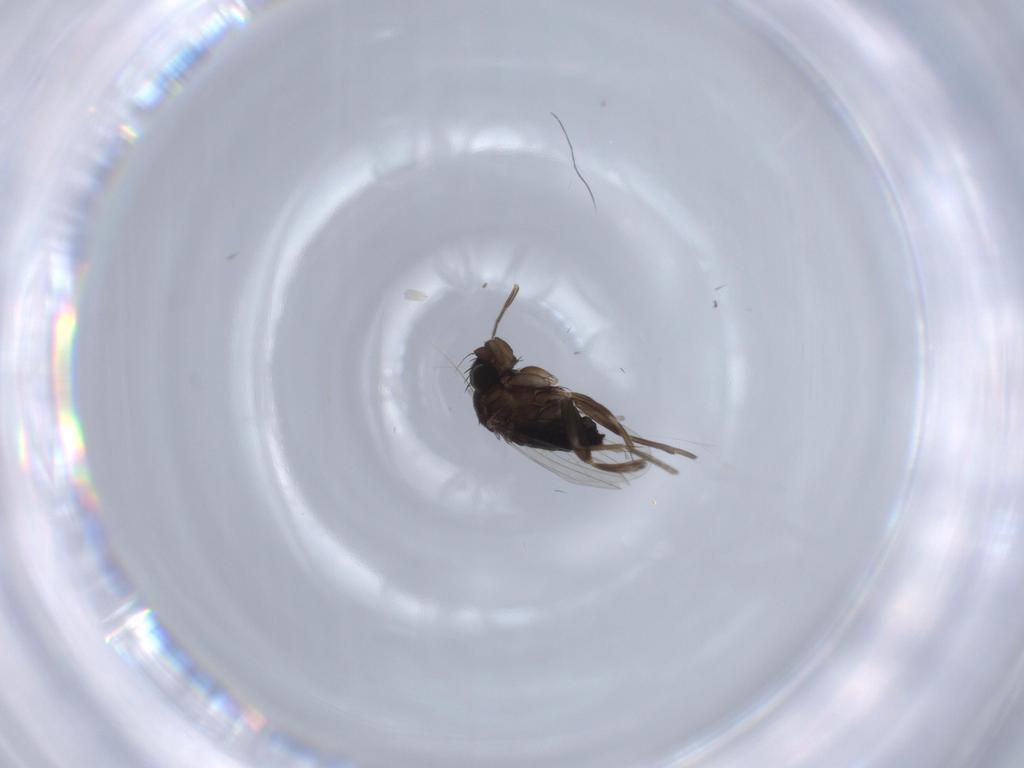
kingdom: Animalia
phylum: Arthropoda
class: Insecta
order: Diptera
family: Phoridae
